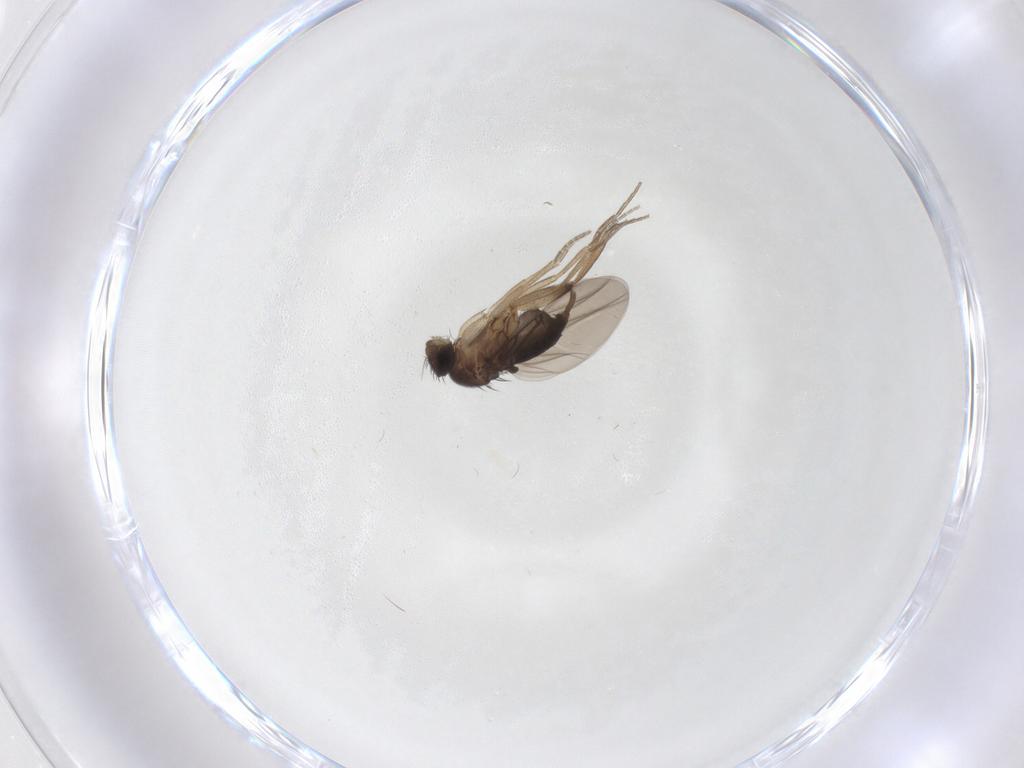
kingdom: Animalia
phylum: Arthropoda
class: Insecta
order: Diptera
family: Phoridae
